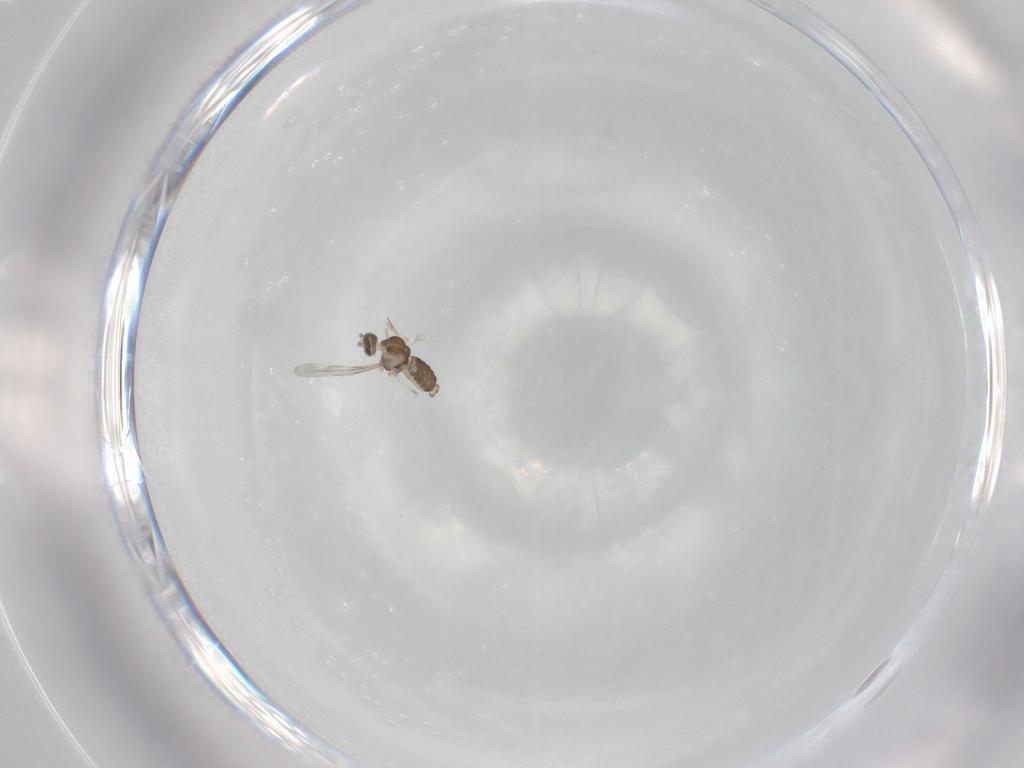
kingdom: Animalia
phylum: Arthropoda
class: Insecta
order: Diptera
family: Cecidomyiidae
